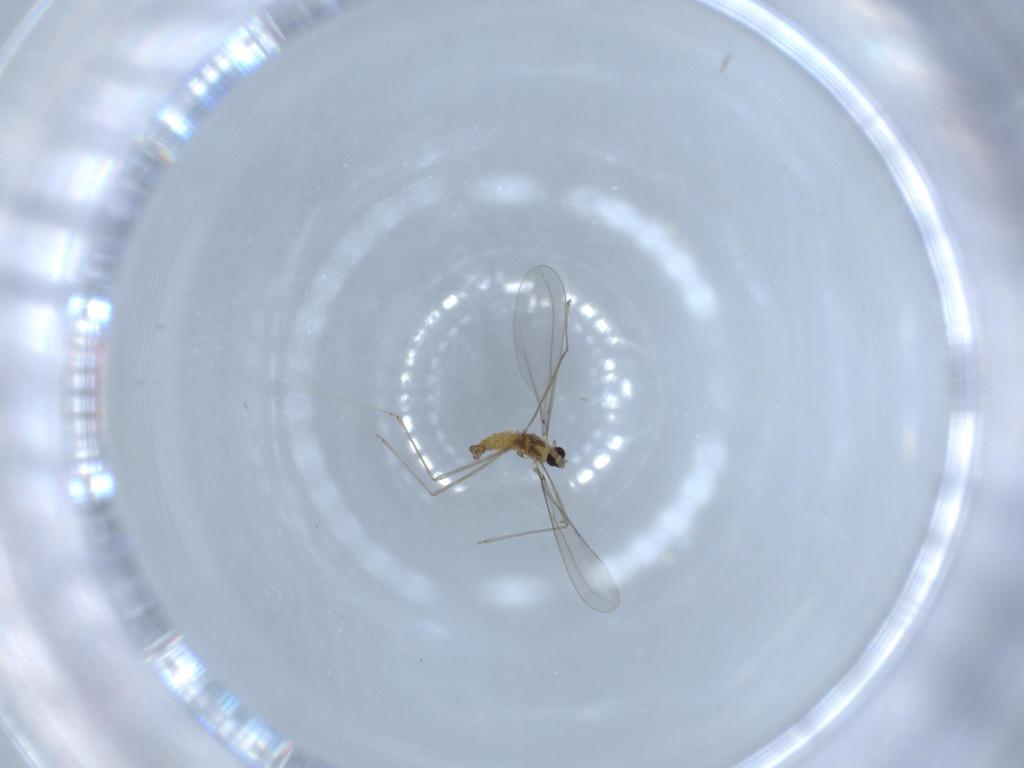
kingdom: Animalia
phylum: Arthropoda
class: Insecta
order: Diptera
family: Cecidomyiidae
